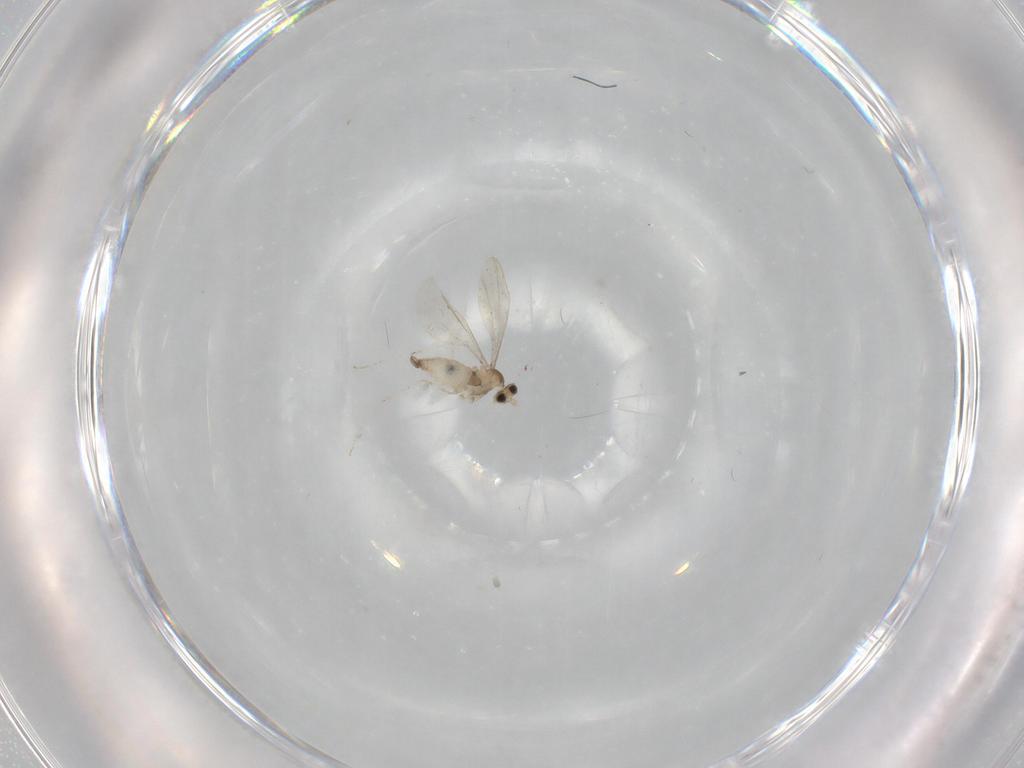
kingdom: Animalia
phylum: Arthropoda
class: Insecta
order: Diptera
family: Cecidomyiidae
